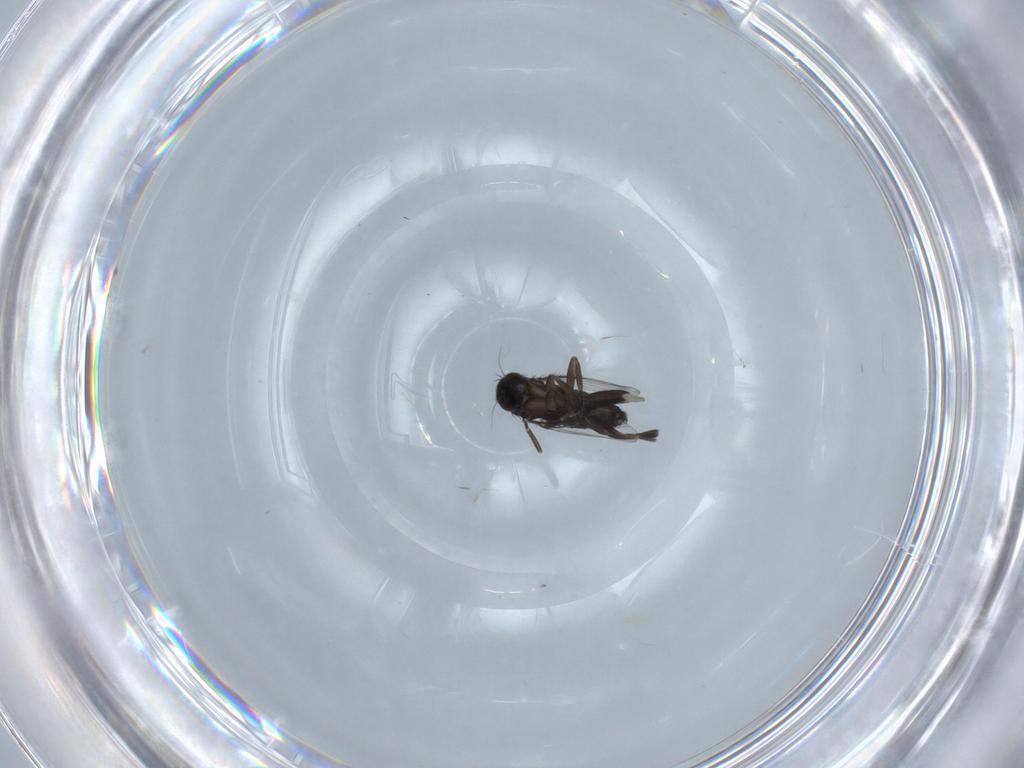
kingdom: Animalia
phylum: Arthropoda
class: Insecta
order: Diptera
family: Phoridae
